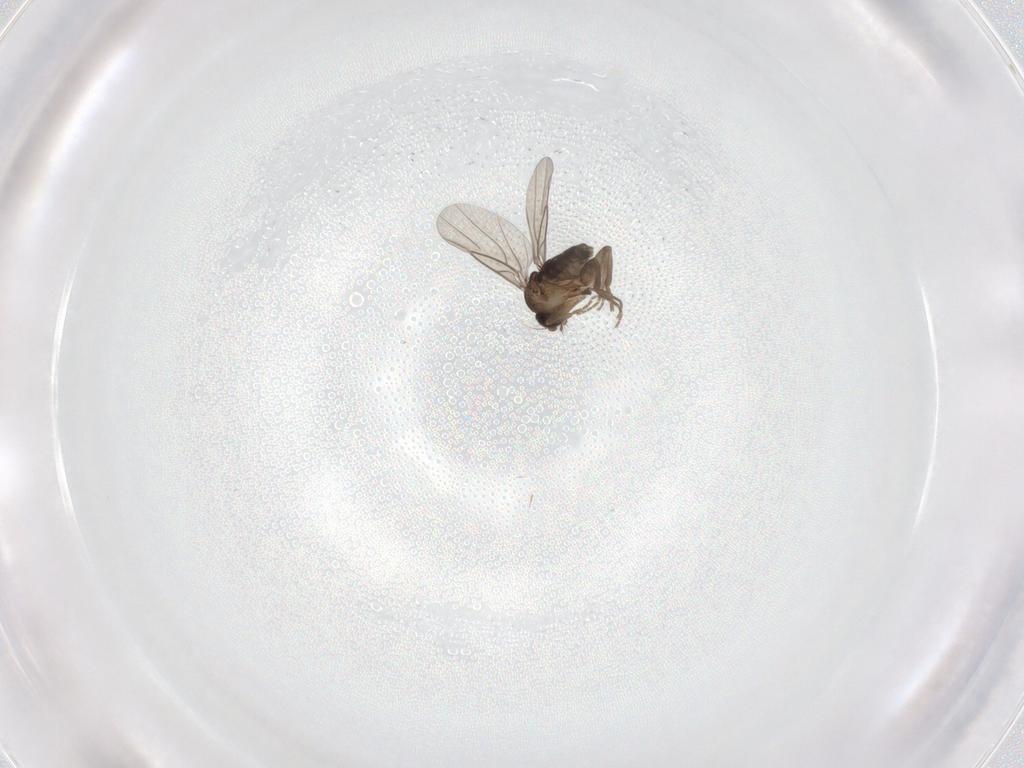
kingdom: Animalia
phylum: Arthropoda
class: Insecta
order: Diptera
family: Phoridae
